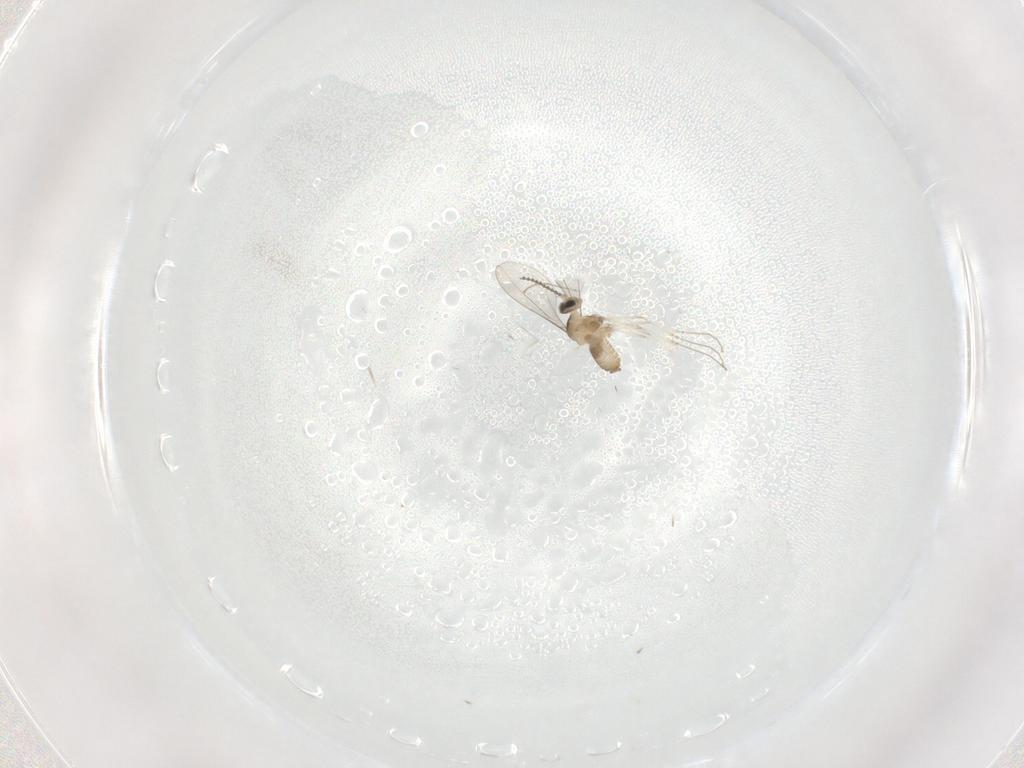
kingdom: Animalia
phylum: Arthropoda
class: Insecta
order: Diptera
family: Cecidomyiidae
